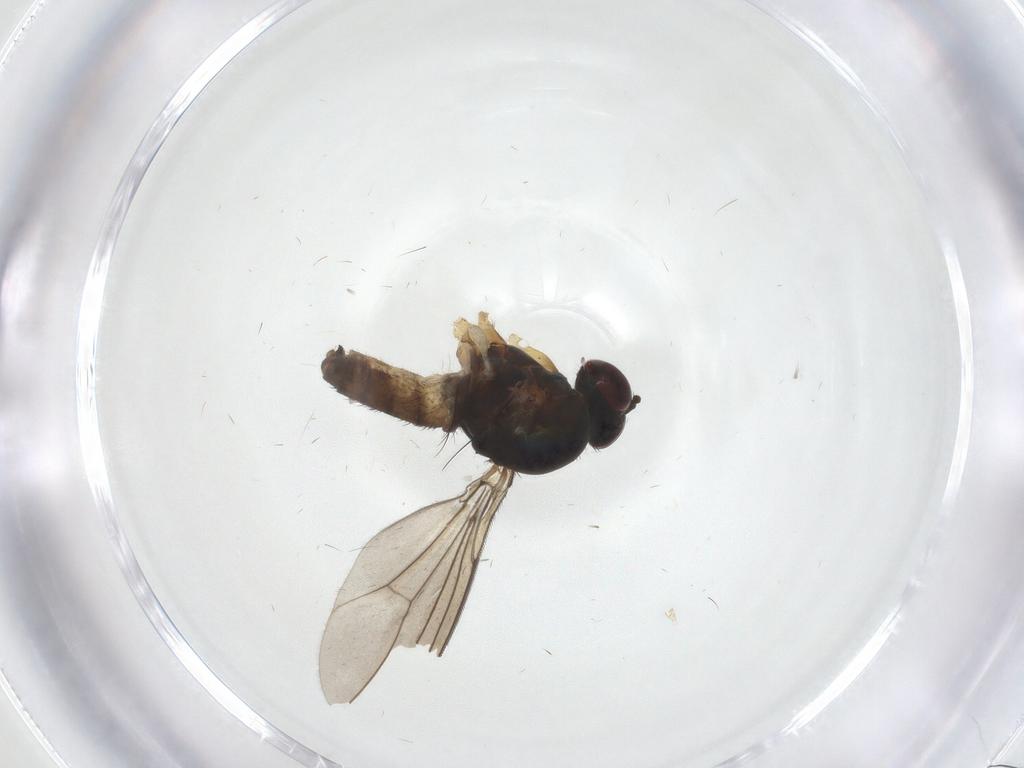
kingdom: Animalia
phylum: Arthropoda
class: Insecta
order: Diptera
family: Dolichopodidae
